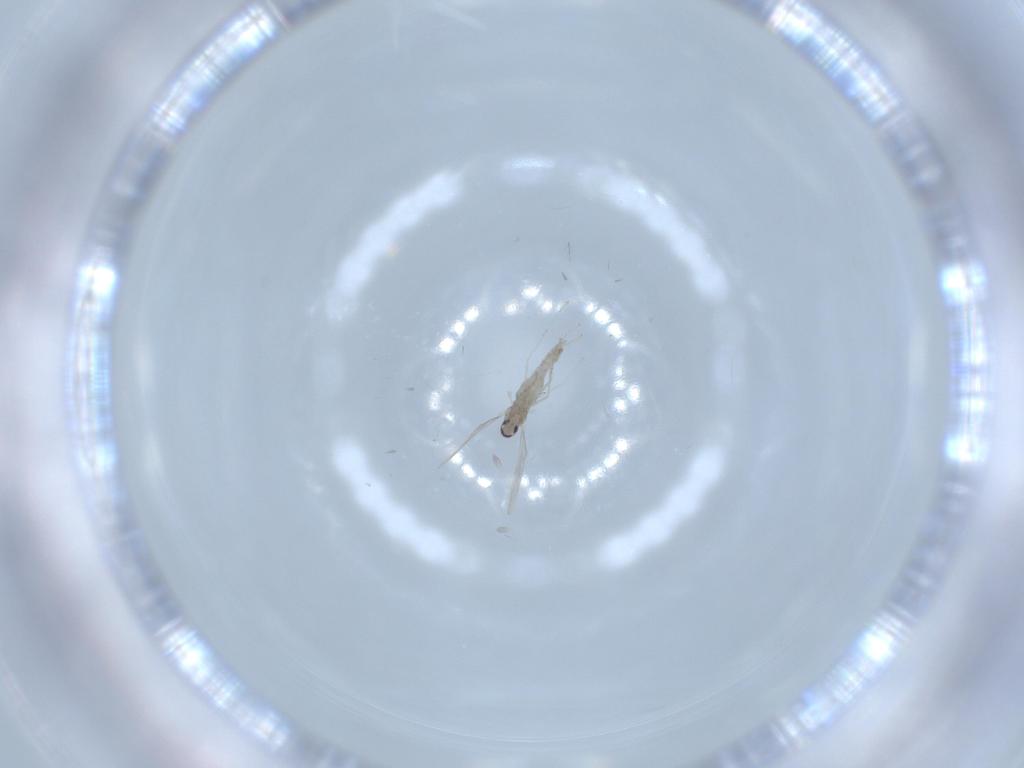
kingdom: Animalia
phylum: Arthropoda
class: Insecta
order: Diptera
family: Cecidomyiidae
